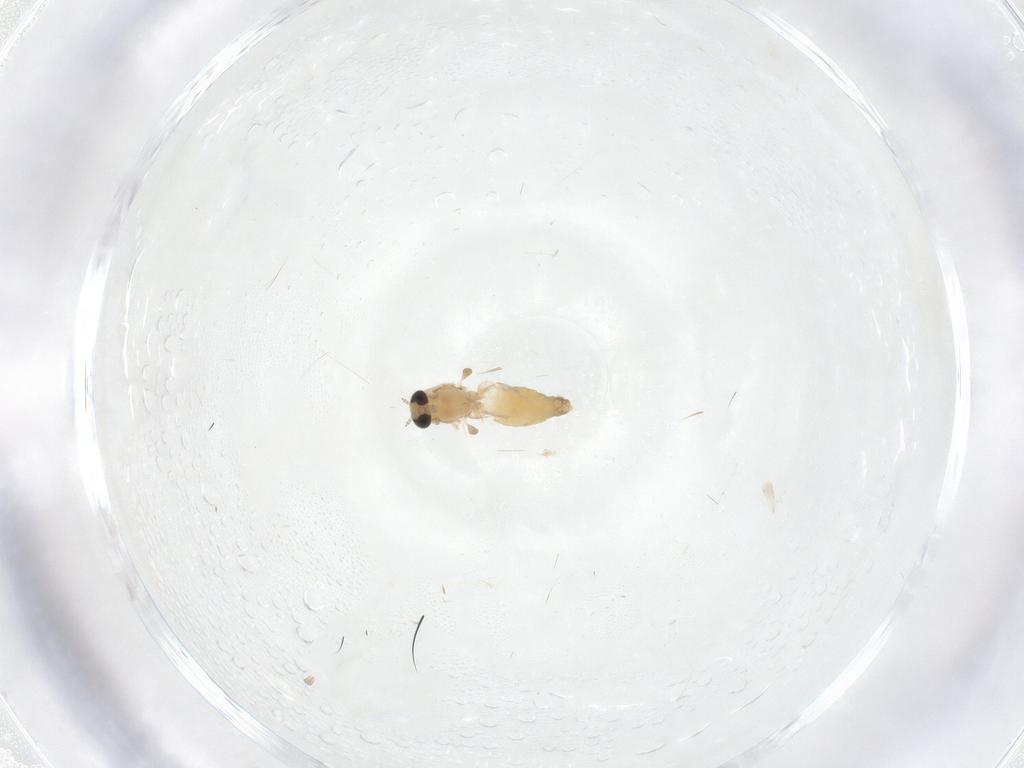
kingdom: Animalia
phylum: Arthropoda
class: Insecta
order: Diptera
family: Chironomidae
